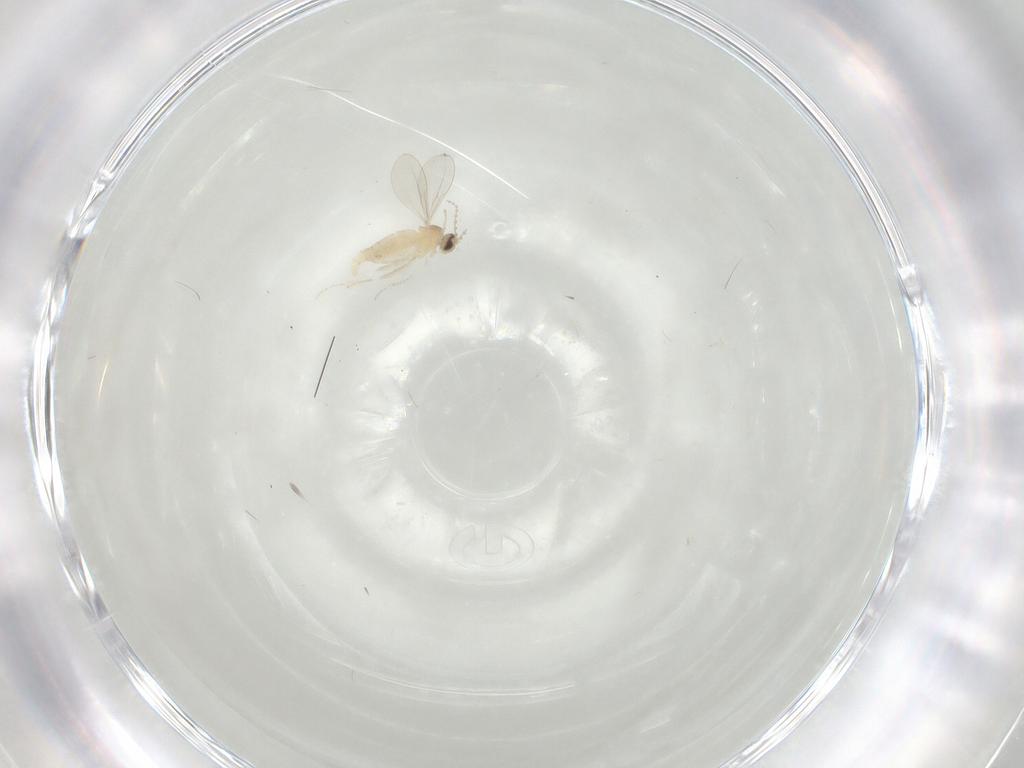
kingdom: Animalia
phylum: Arthropoda
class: Insecta
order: Diptera
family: Cecidomyiidae
